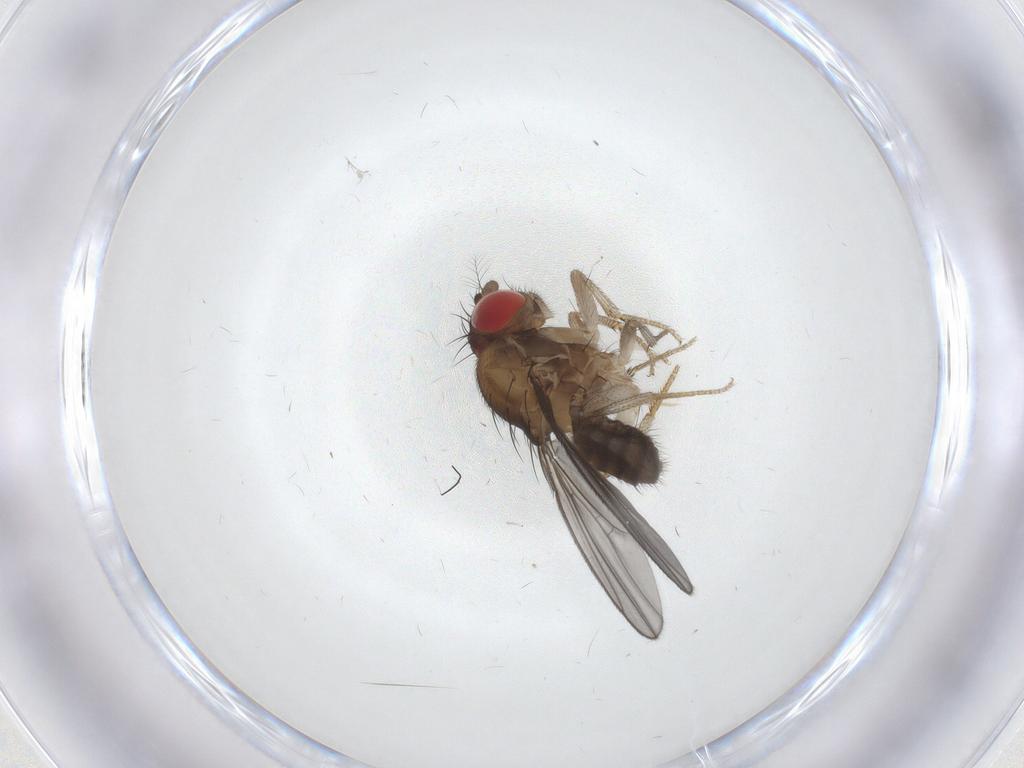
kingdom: Animalia
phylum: Arthropoda
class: Insecta
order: Diptera
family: Drosophilidae
